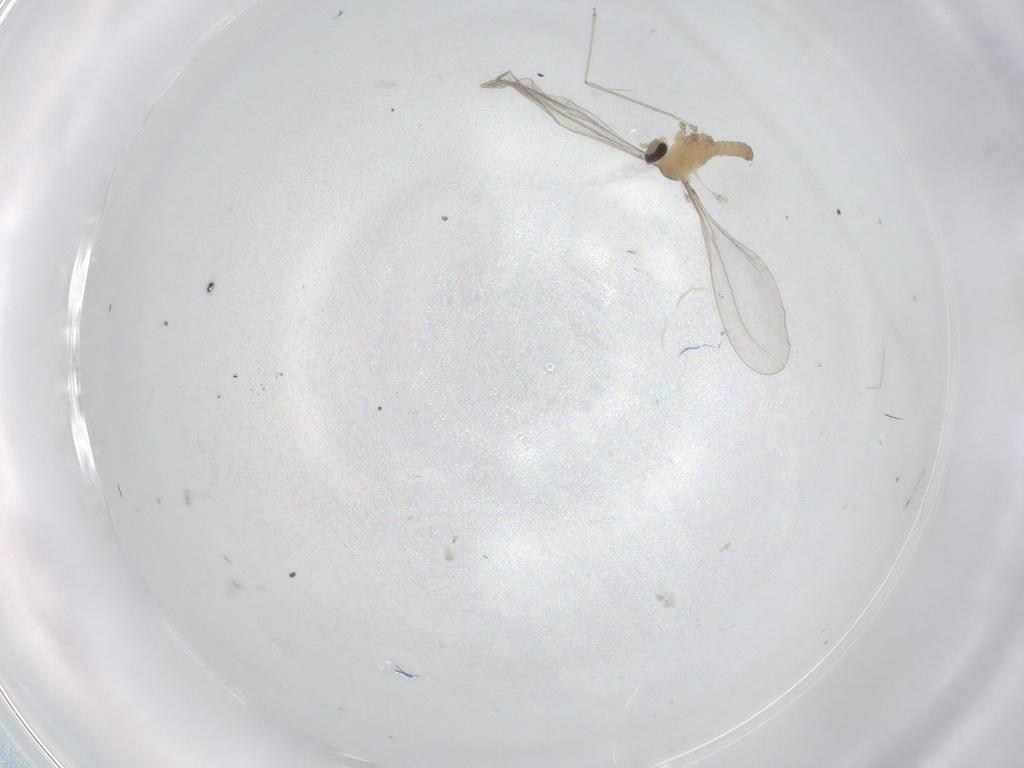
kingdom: Animalia
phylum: Arthropoda
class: Insecta
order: Diptera
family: Cecidomyiidae
